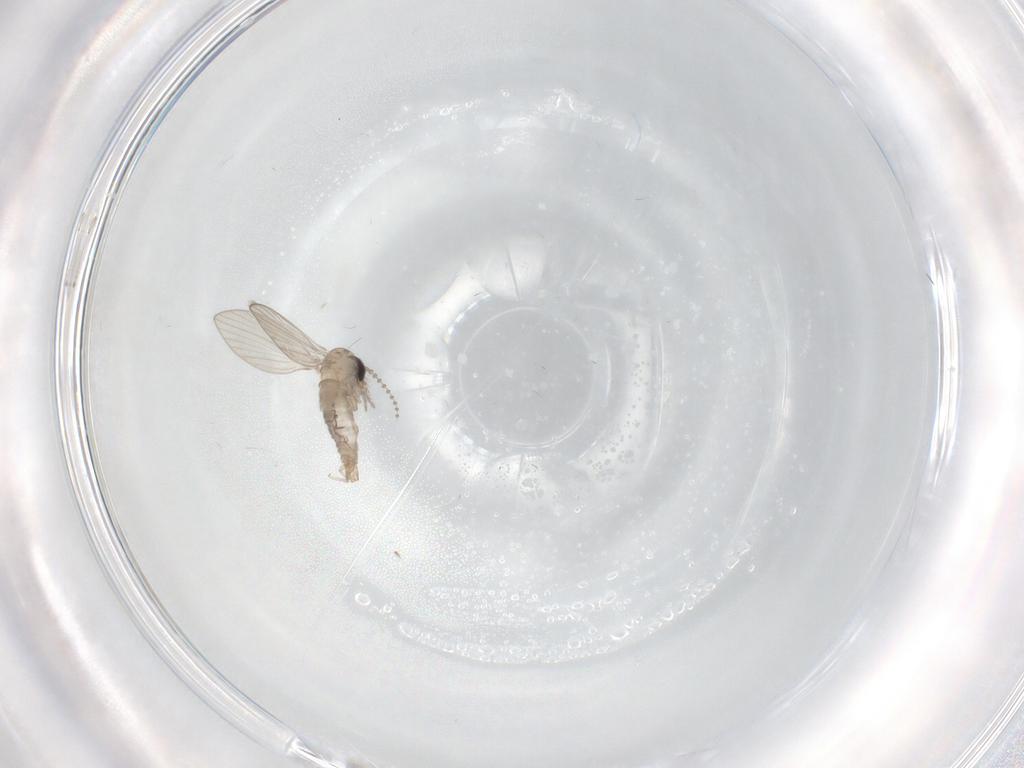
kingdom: Animalia
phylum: Arthropoda
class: Insecta
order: Diptera
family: Psychodidae
